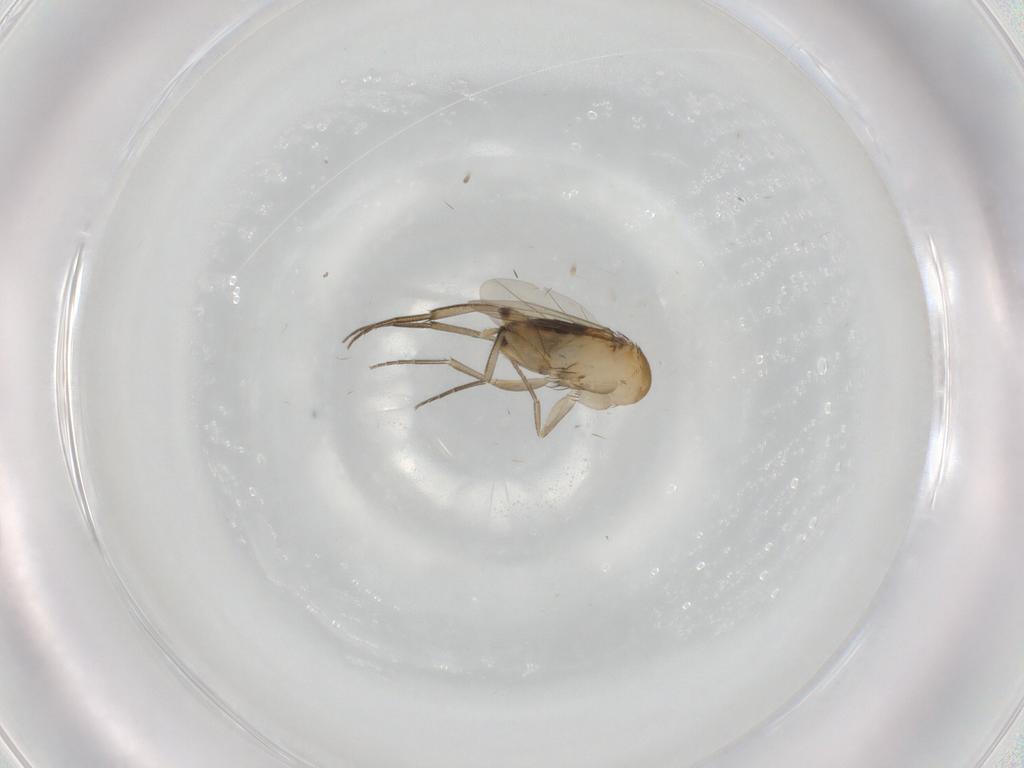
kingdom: Animalia
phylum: Arthropoda
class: Insecta
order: Diptera
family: Phoridae
